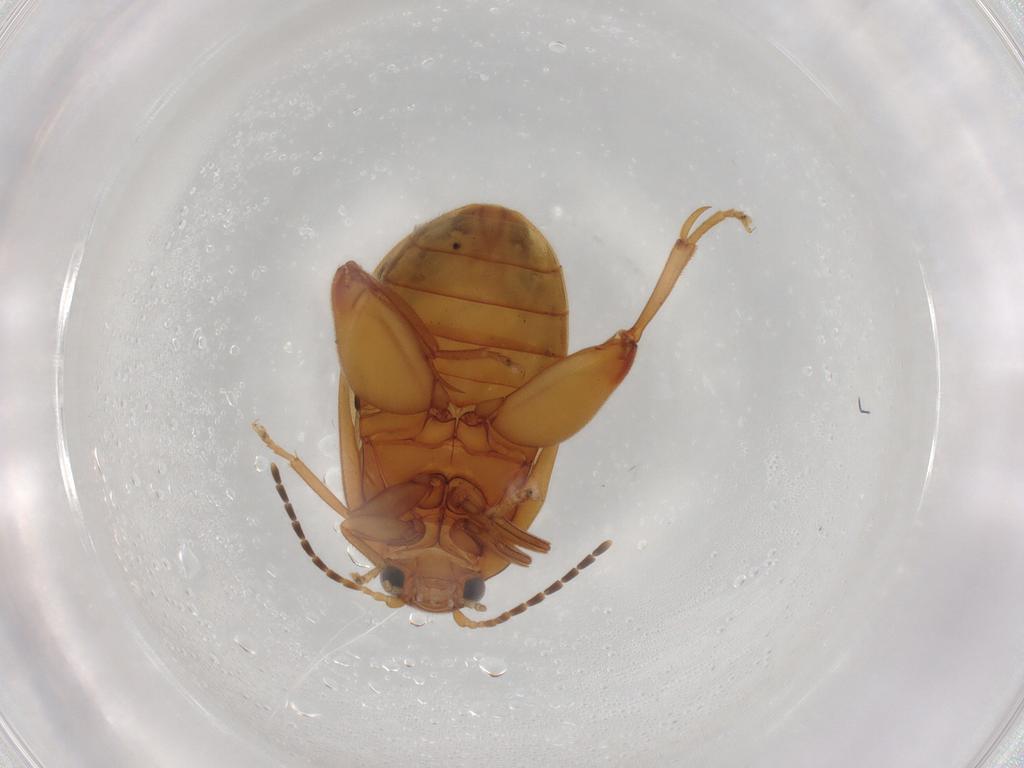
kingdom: Animalia
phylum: Arthropoda
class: Insecta
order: Coleoptera
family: Scirtidae
